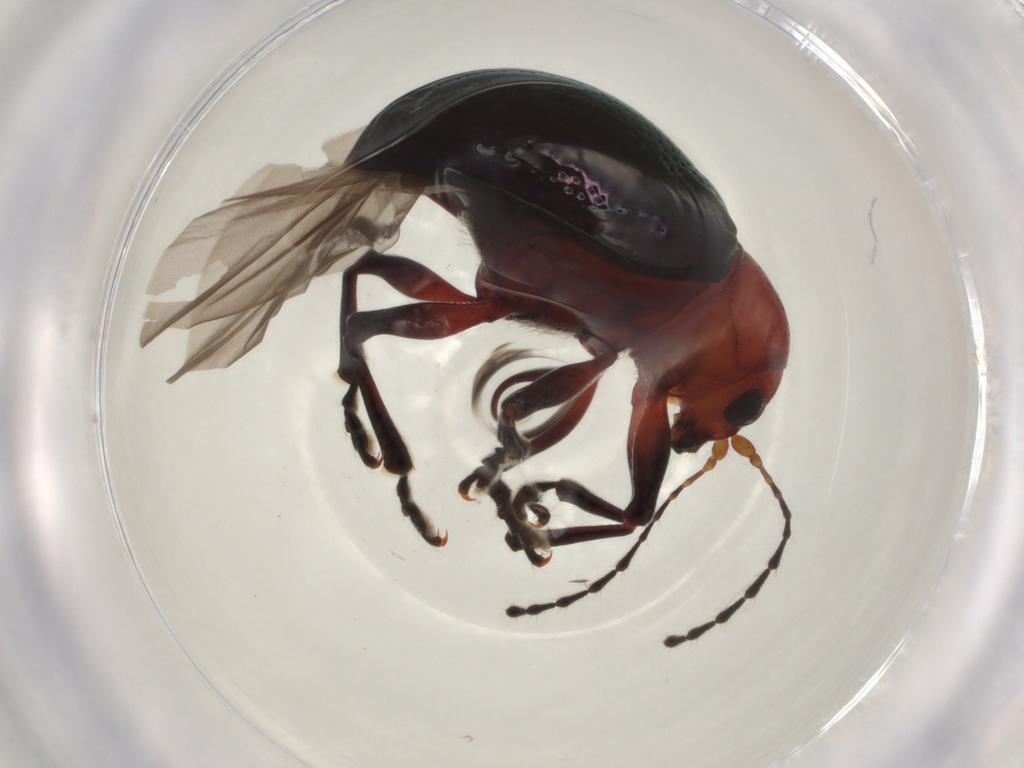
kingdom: Animalia
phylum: Arthropoda
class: Insecta
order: Coleoptera
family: Chrysomelidae
